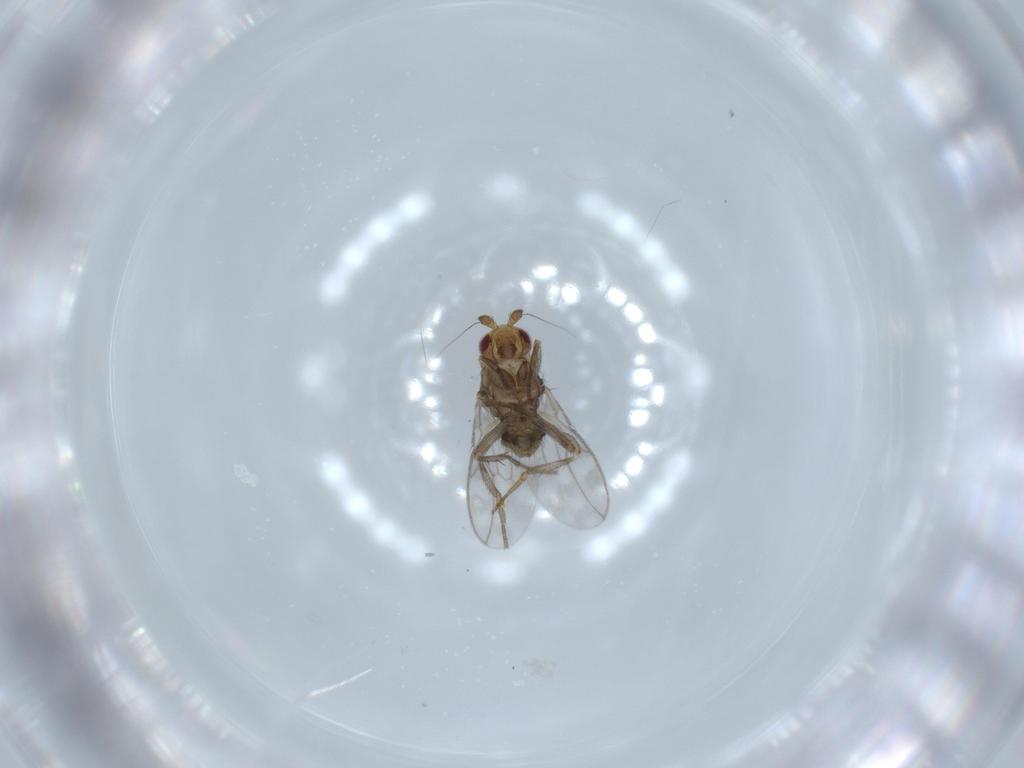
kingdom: Animalia
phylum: Arthropoda
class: Insecta
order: Diptera
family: Sphaeroceridae
